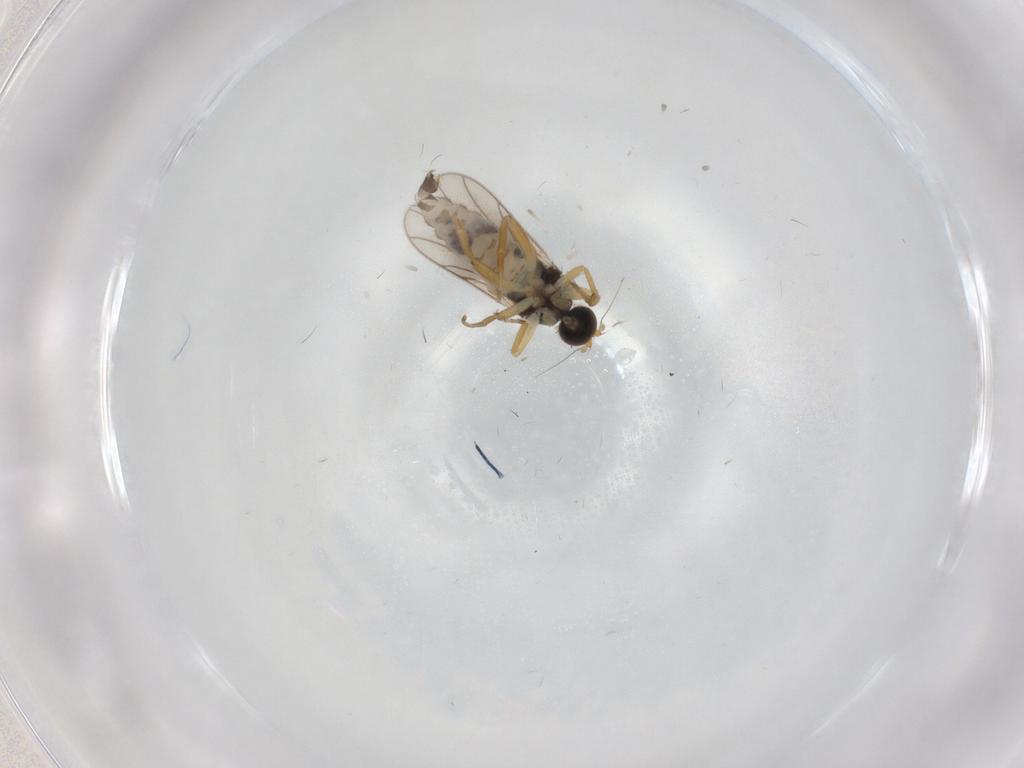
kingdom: Animalia
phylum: Arthropoda
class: Insecta
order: Diptera
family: Hybotidae
